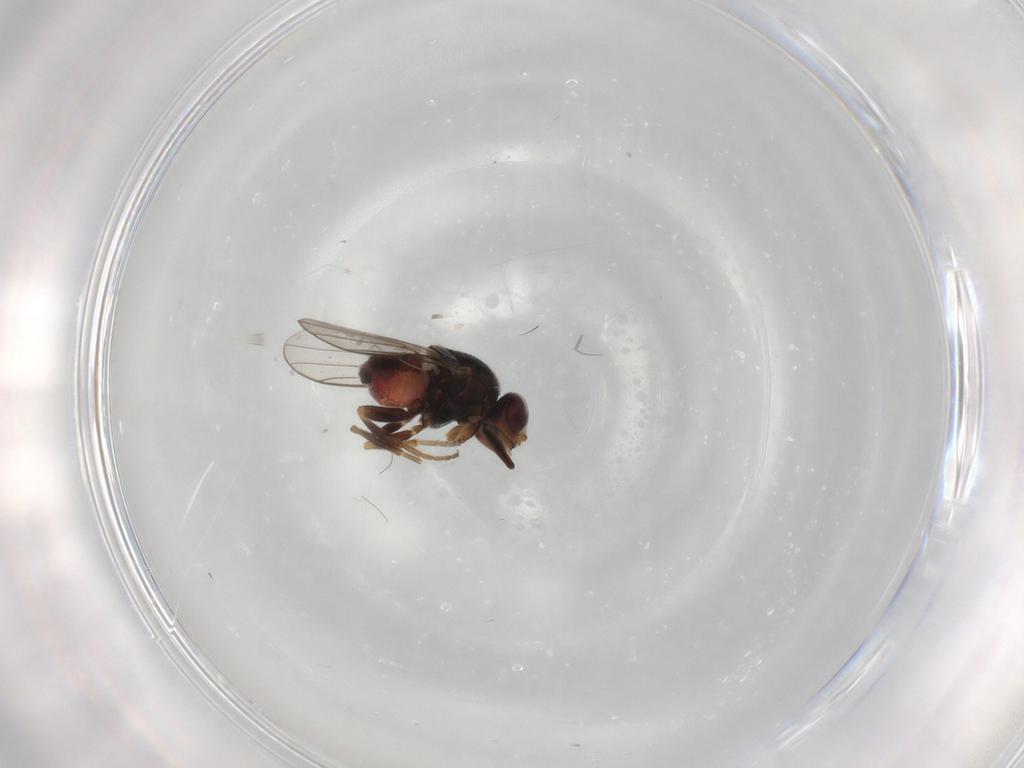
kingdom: Animalia
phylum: Arthropoda
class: Insecta
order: Diptera
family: Chloropidae
